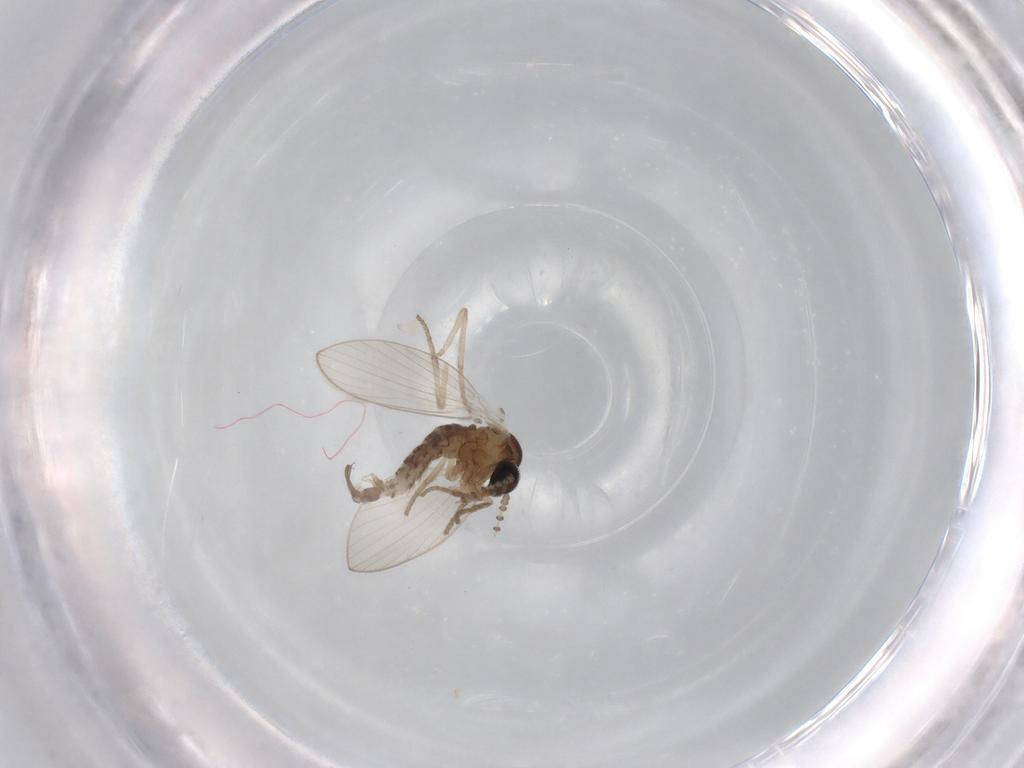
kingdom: Animalia
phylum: Arthropoda
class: Insecta
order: Diptera
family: Psychodidae
